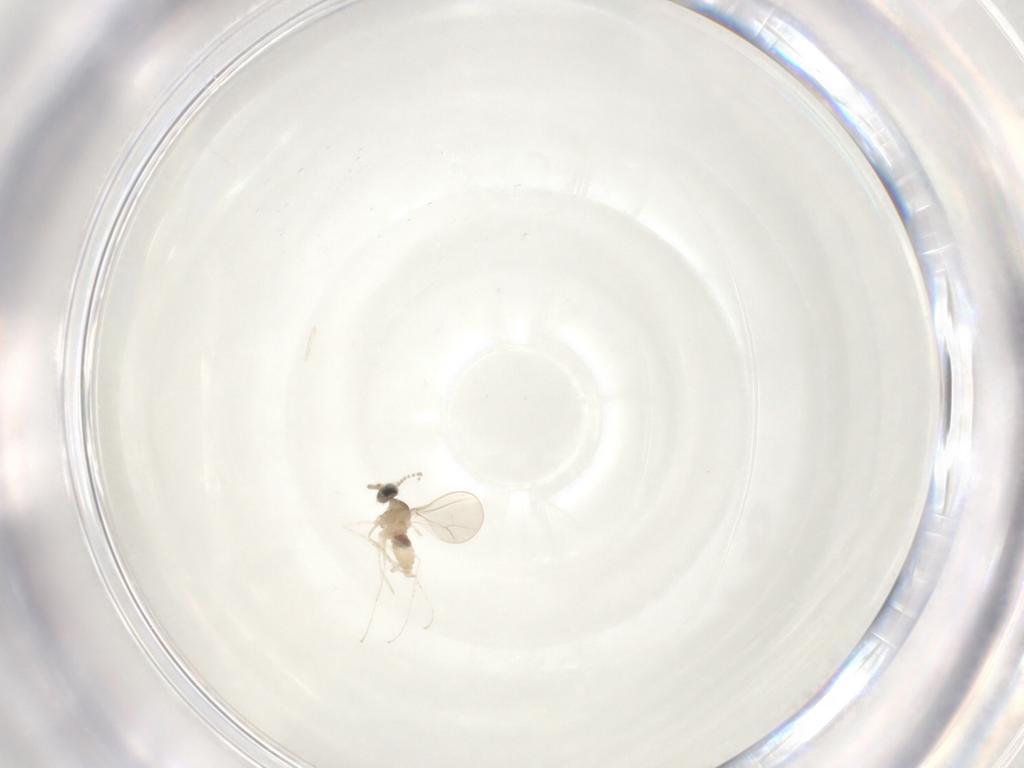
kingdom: Animalia
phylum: Arthropoda
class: Insecta
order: Diptera
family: Cecidomyiidae
